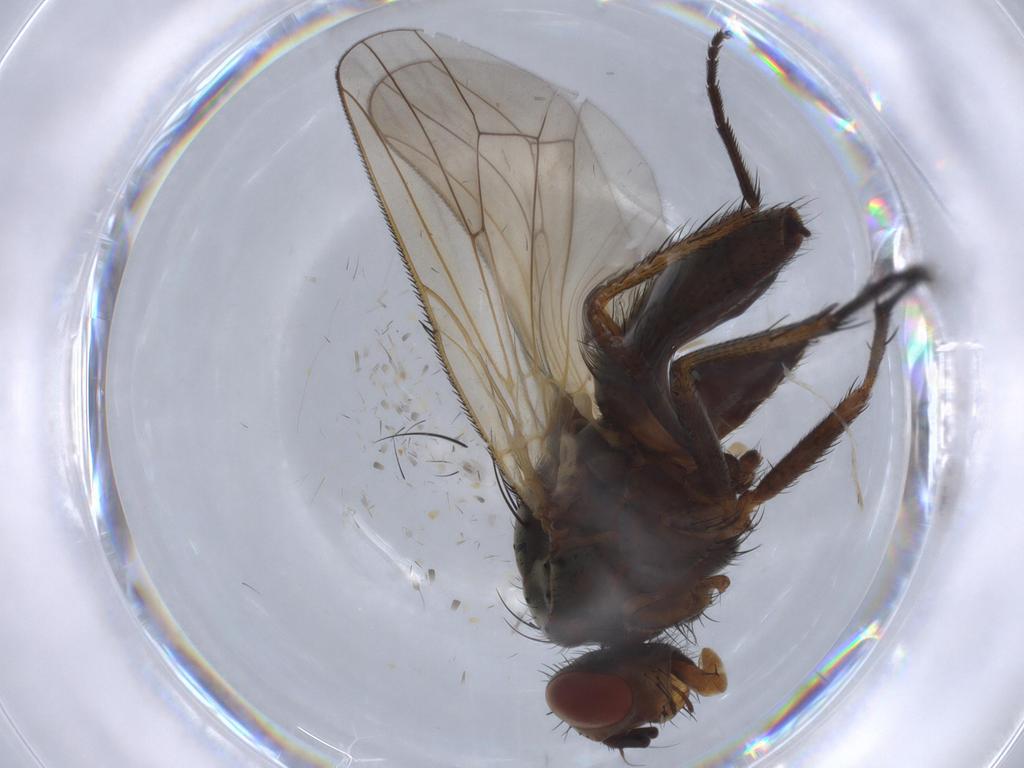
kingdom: Animalia
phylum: Arthropoda
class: Insecta
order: Diptera
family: Anthomyiidae
